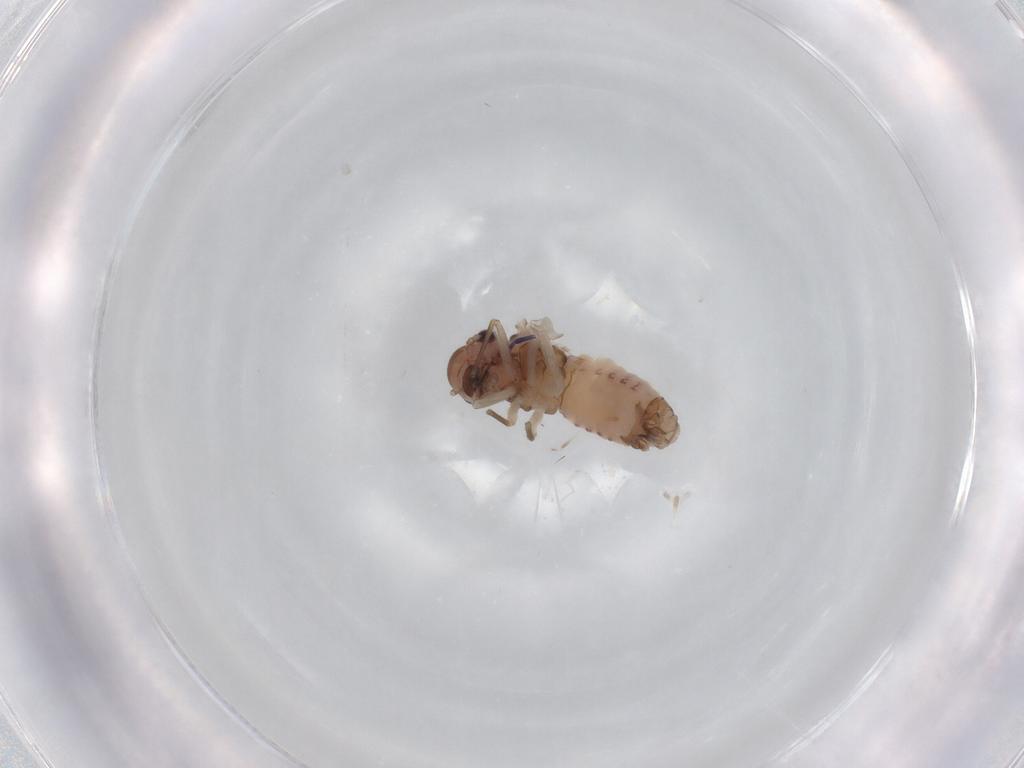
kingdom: Animalia
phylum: Arthropoda
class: Insecta
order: Psocodea
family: Peripsocidae
